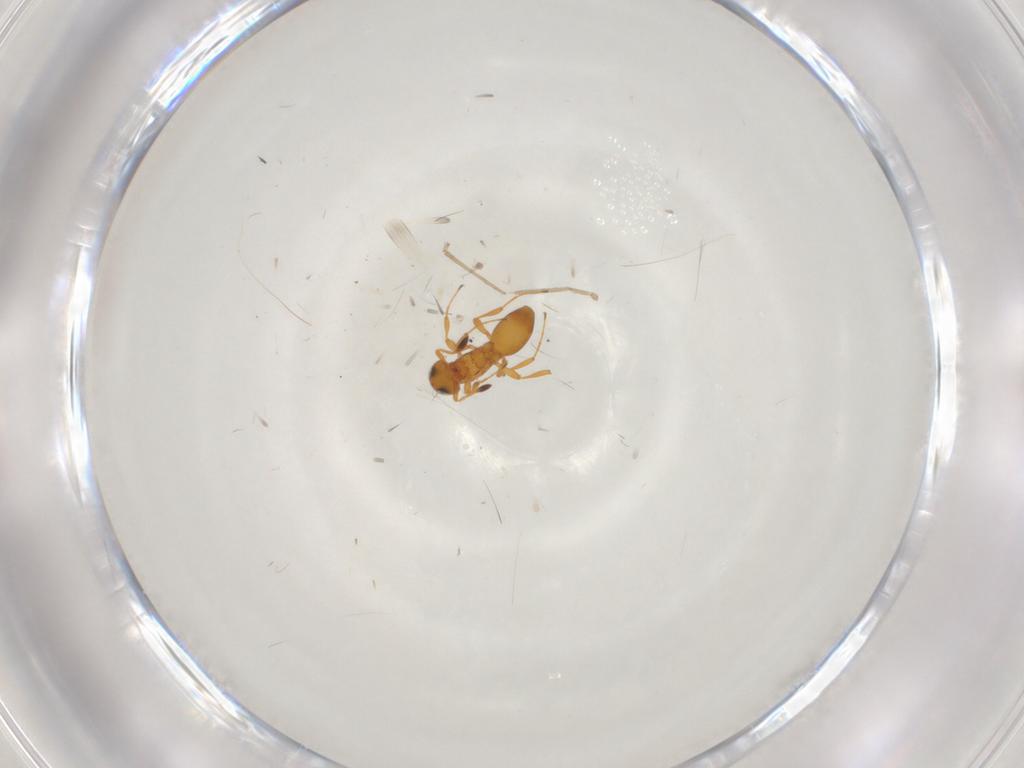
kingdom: Animalia
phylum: Arthropoda
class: Insecta
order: Hymenoptera
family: Platygastridae
